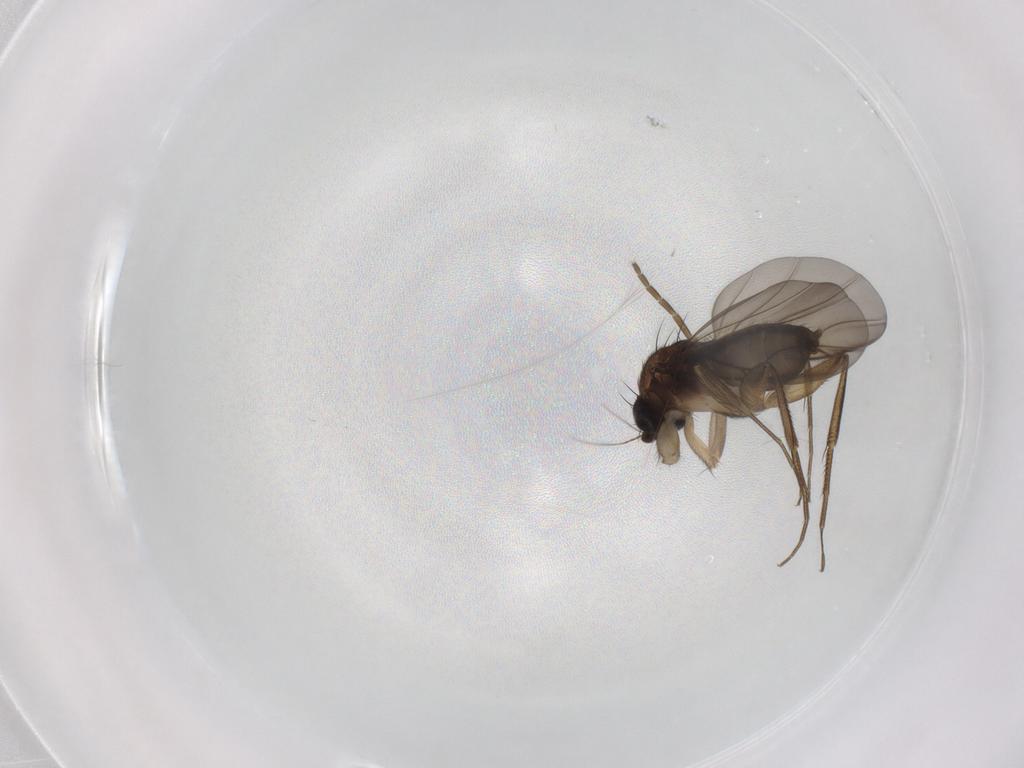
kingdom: Animalia
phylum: Arthropoda
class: Insecta
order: Diptera
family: Phoridae
